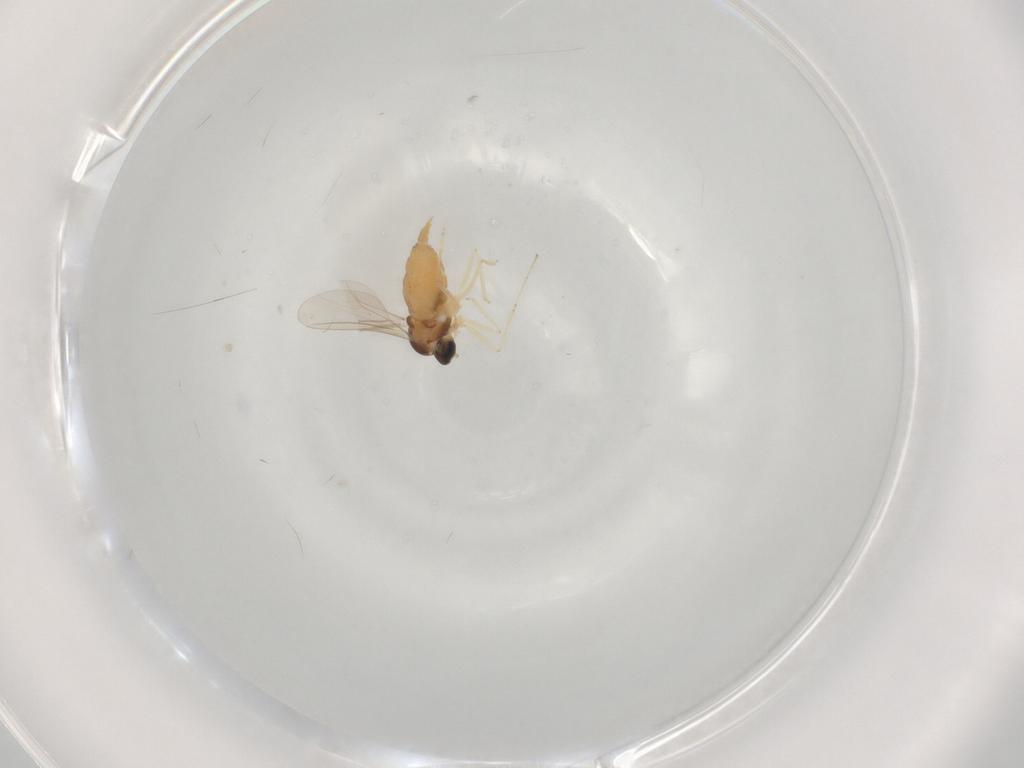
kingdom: Animalia
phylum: Arthropoda
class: Insecta
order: Diptera
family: Cecidomyiidae
